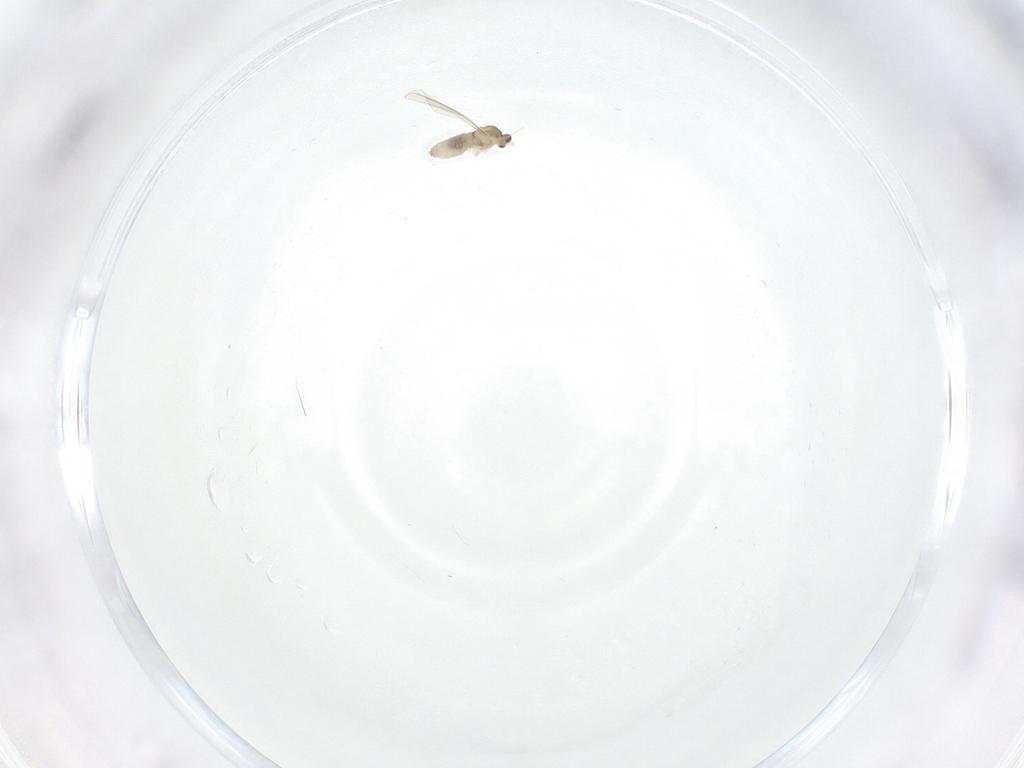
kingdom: Animalia
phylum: Arthropoda
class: Insecta
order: Diptera
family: Cecidomyiidae
